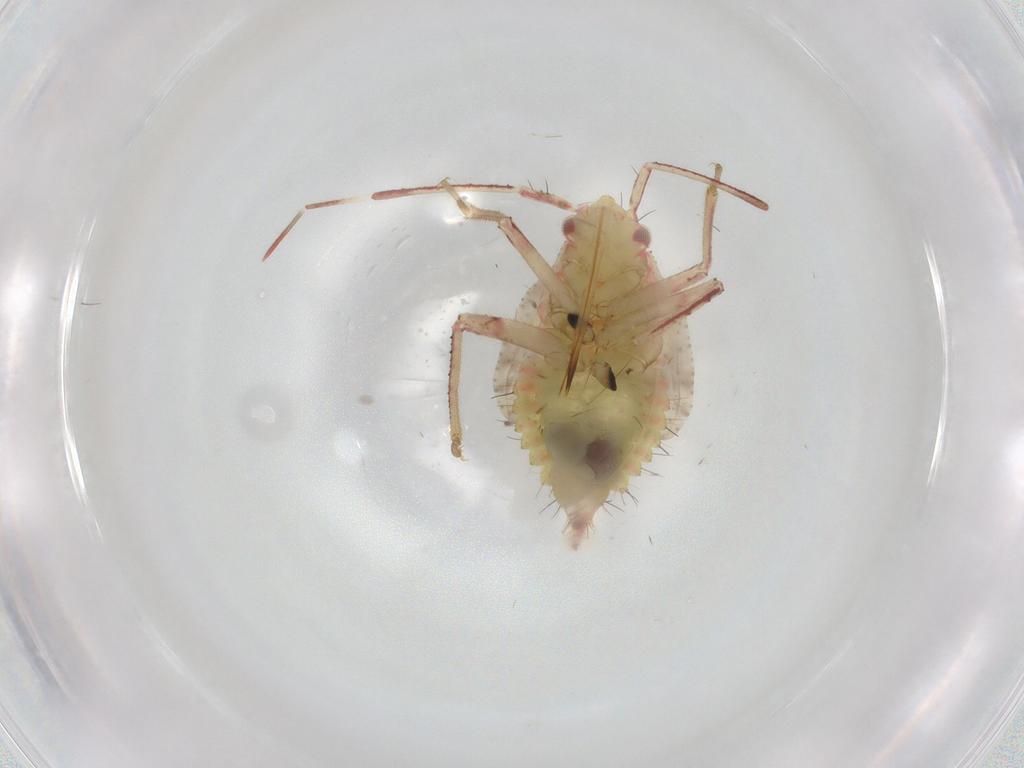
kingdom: Animalia
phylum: Arthropoda
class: Insecta
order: Hemiptera
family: Miridae
